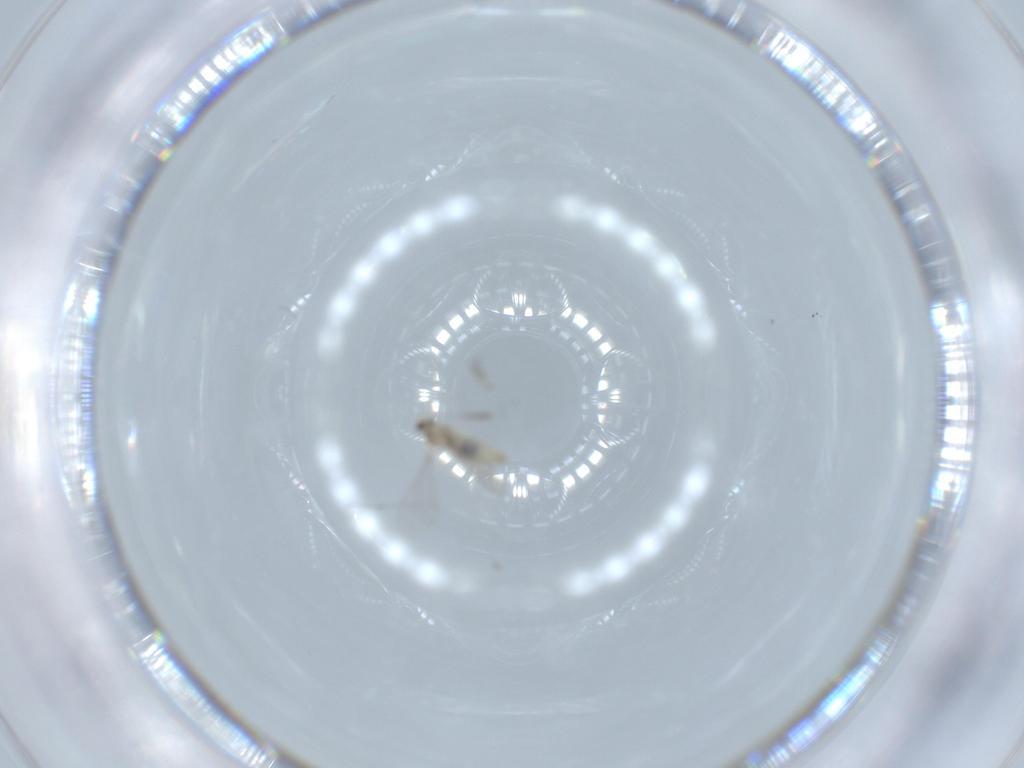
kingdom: Animalia
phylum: Arthropoda
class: Insecta
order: Diptera
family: Cecidomyiidae
